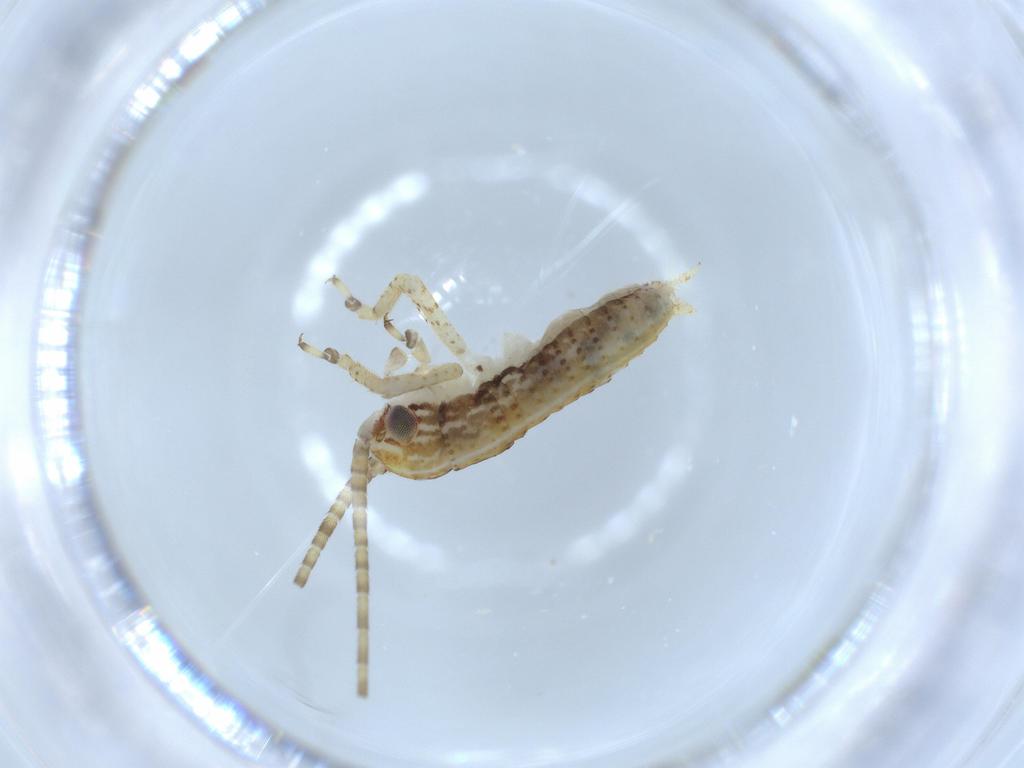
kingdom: Animalia
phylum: Arthropoda
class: Insecta
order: Orthoptera
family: Gryllidae
